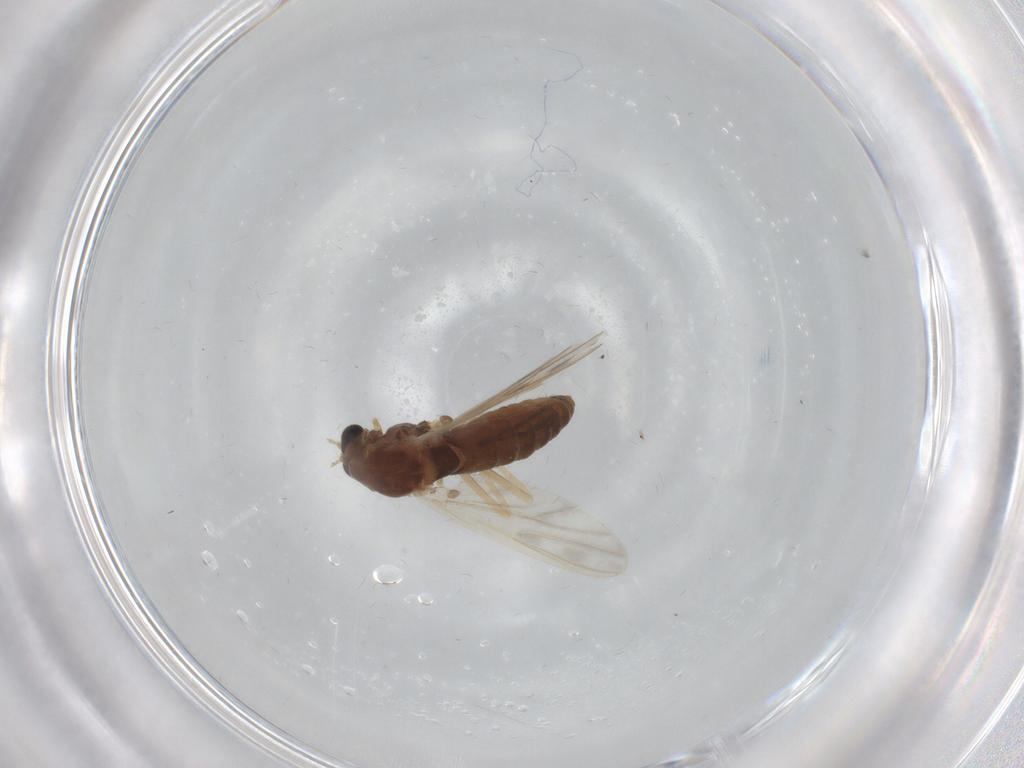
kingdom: Animalia
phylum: Arthropoda
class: Insecta
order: Diptera
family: Chironomidae
